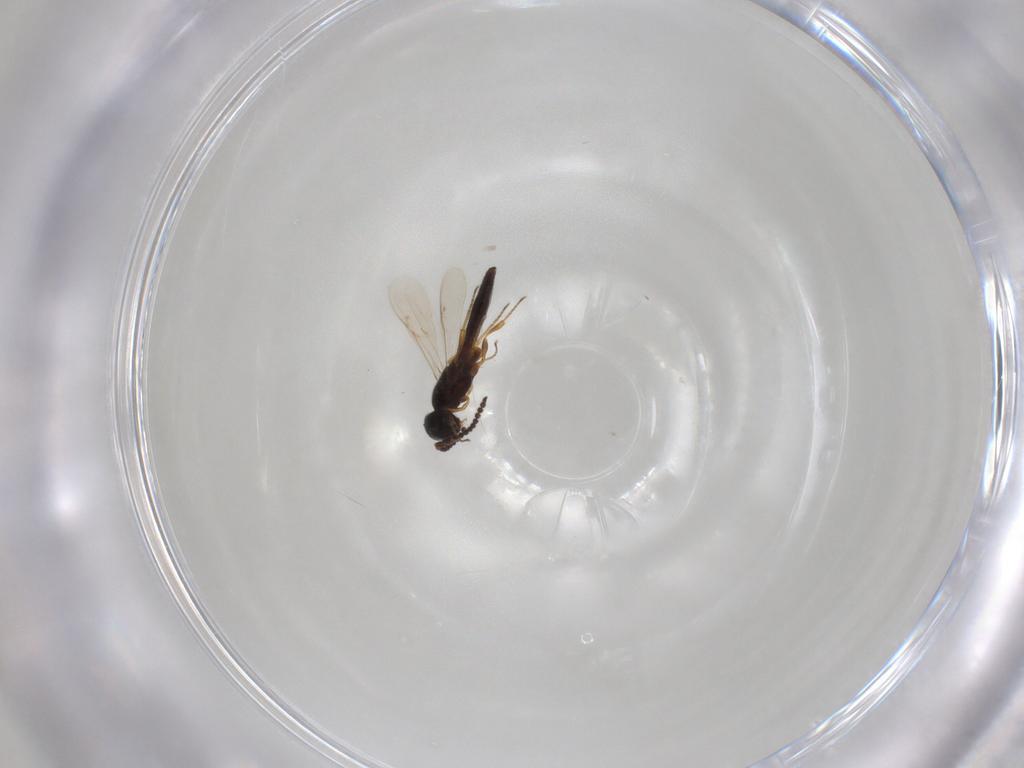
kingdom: Animalia
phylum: Arthropoda
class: Insecta
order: Hymenoptera
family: Scelionidae
